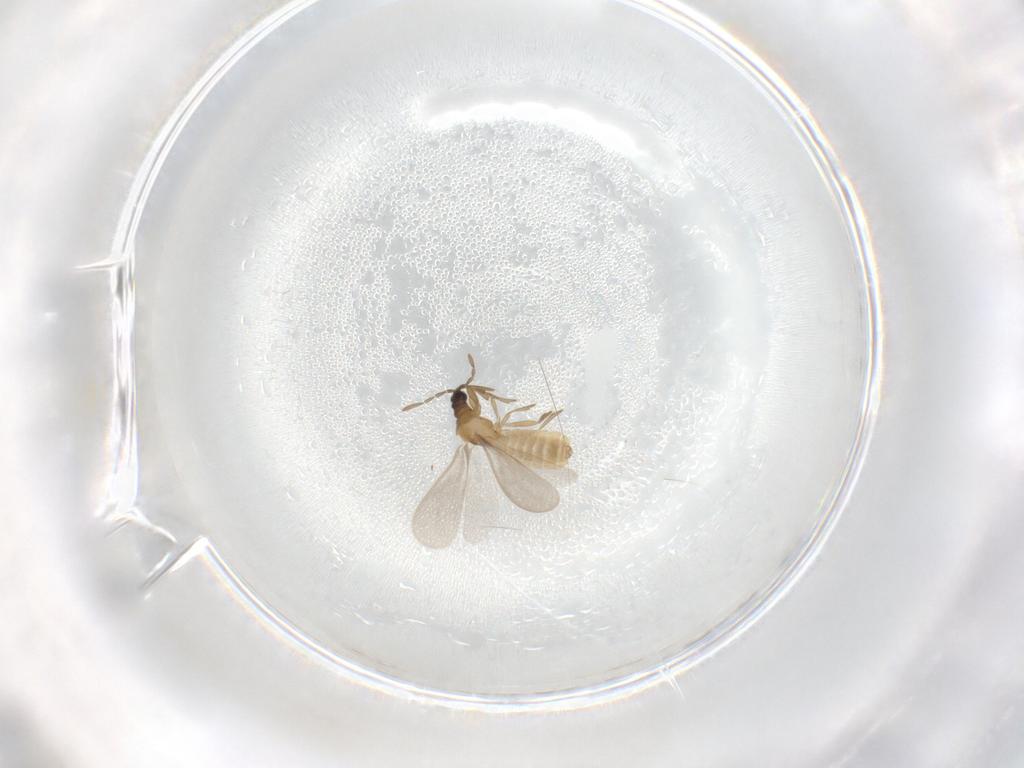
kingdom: Animalia
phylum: Arthropoda
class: Insecta
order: Hemiptera
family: Enicocephalidae
